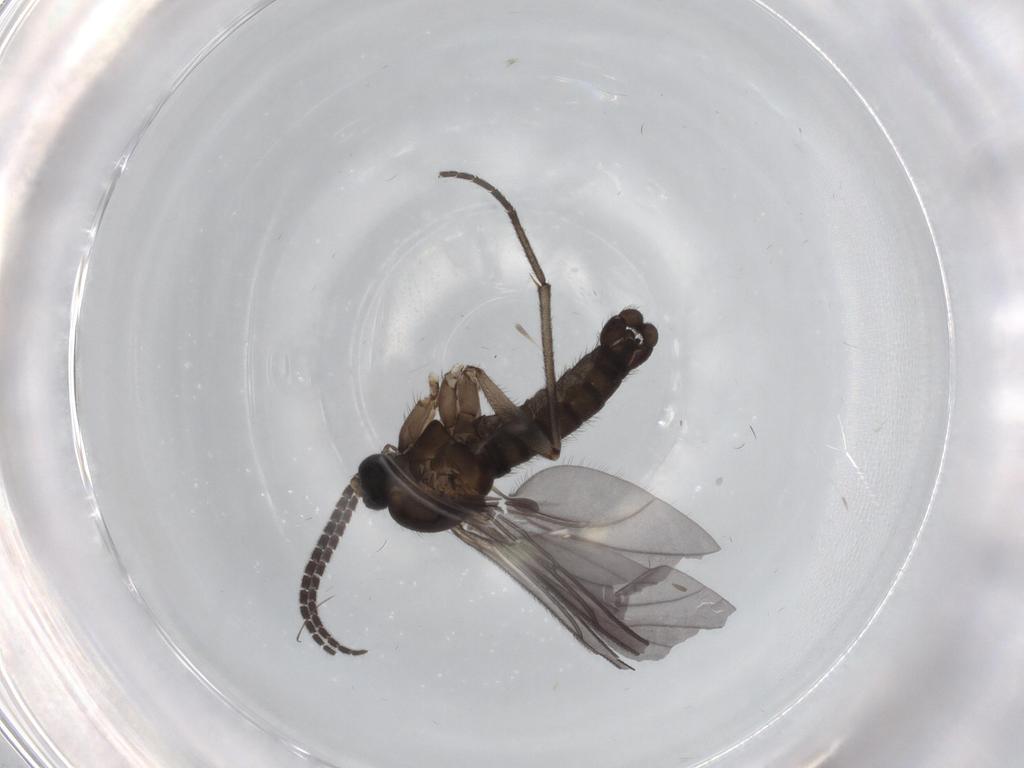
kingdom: Animalia
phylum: Arthropoda
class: Insecta
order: Diptera
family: Sciaridae
